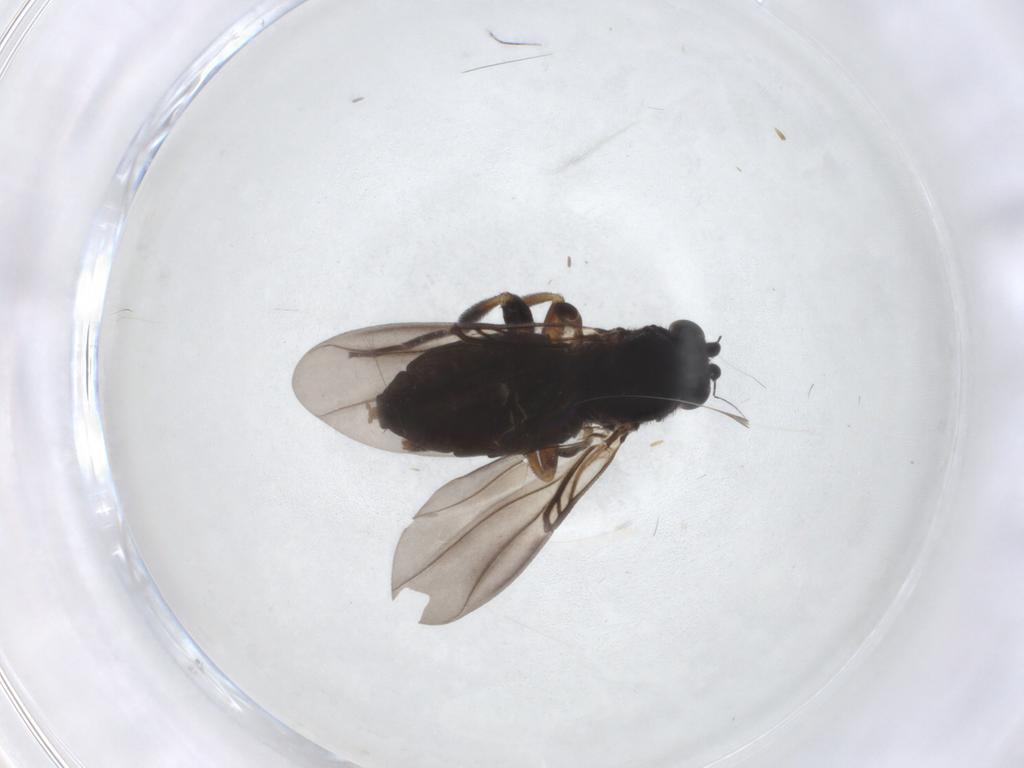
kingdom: Animalia
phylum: Arthropoda
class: Insecta
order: Diptera
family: Phoridae
